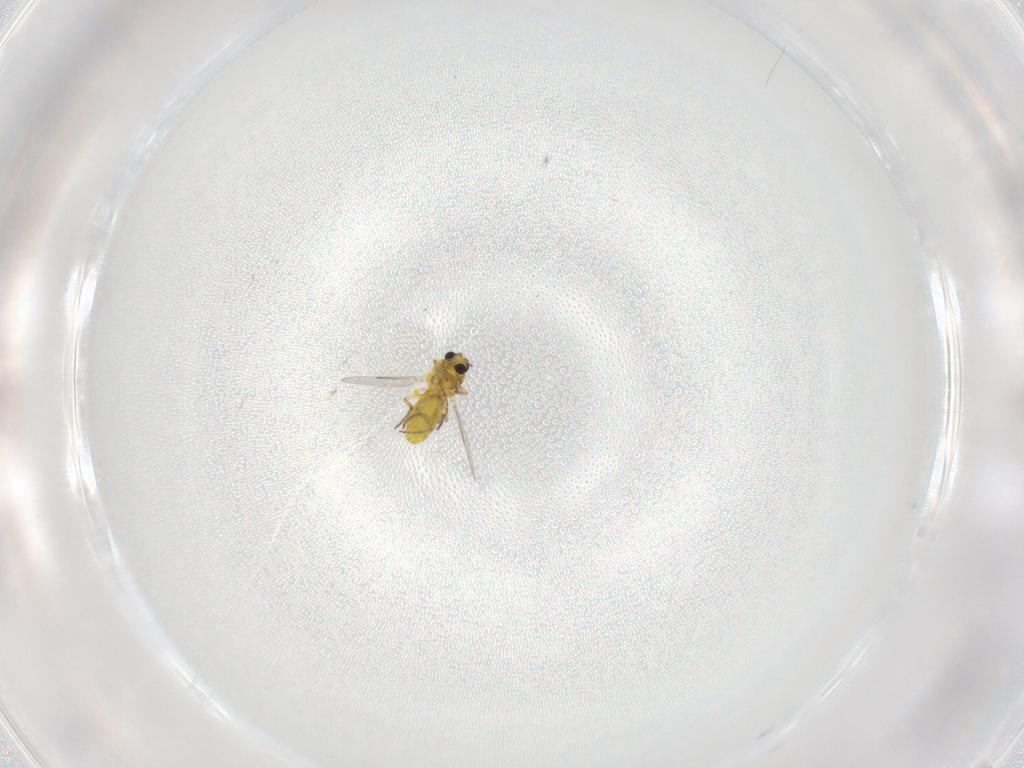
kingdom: Animalia
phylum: Arthropoda
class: Insecta
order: Diptera
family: Ceratopogonidae
